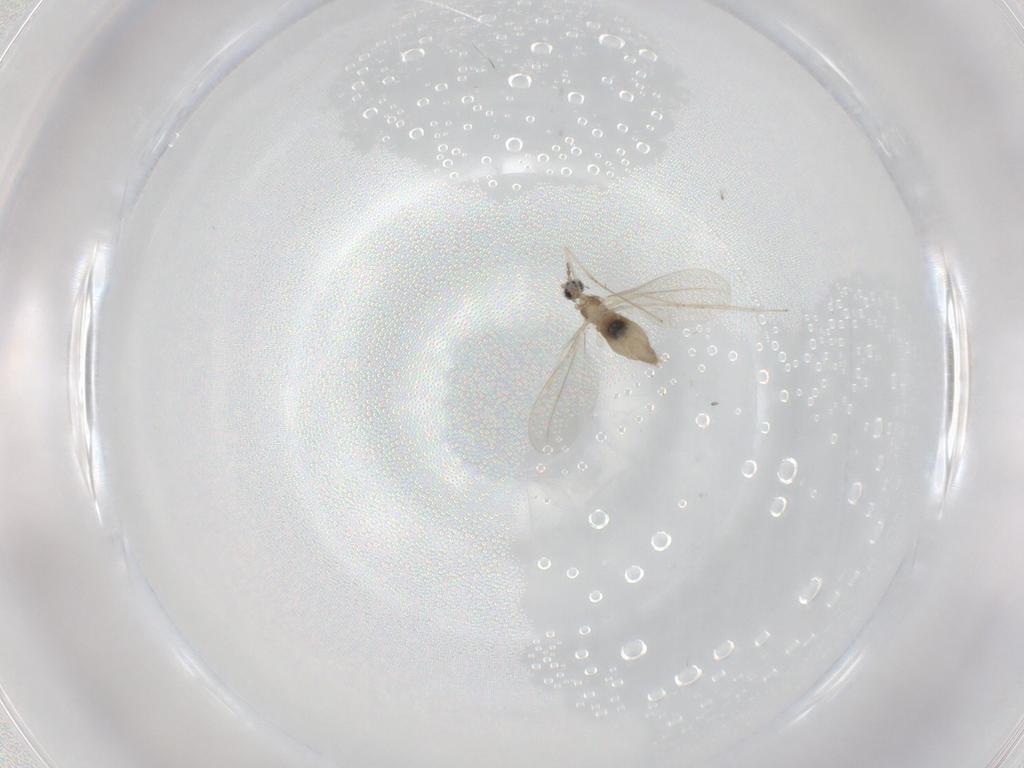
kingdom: Animalia
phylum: Arthropoda
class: Insecta
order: Diptera
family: Cecidomyiidae
